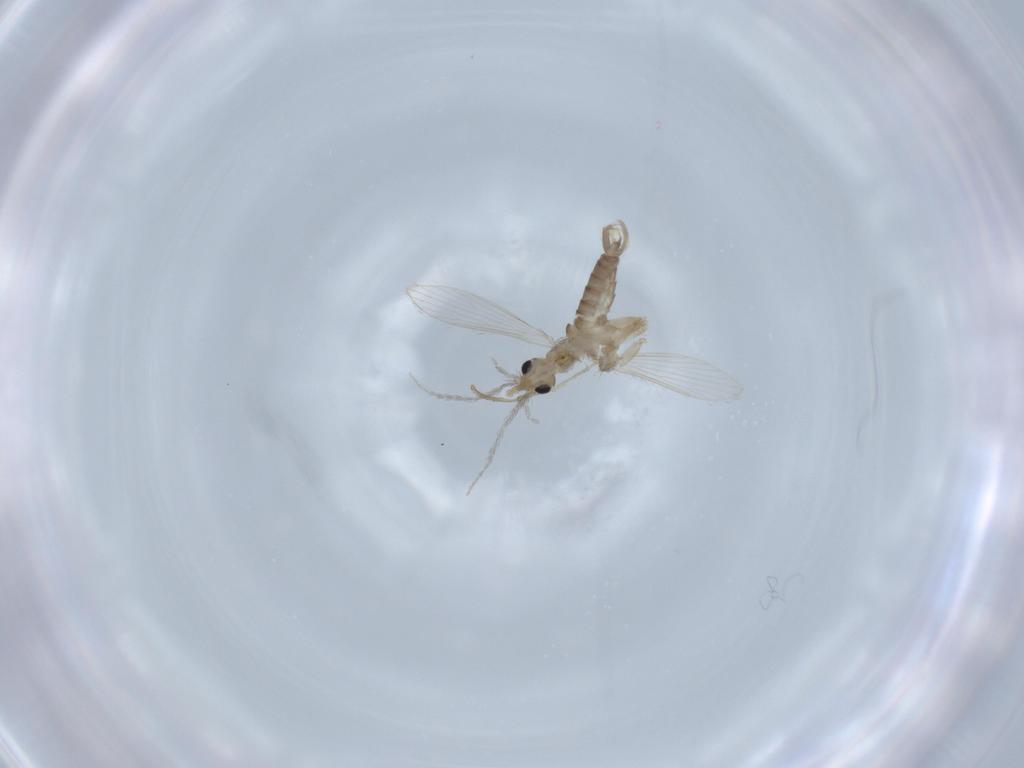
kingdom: Animalia
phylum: Arthropoda
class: Insecta
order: Diptera
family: Psychodidae
